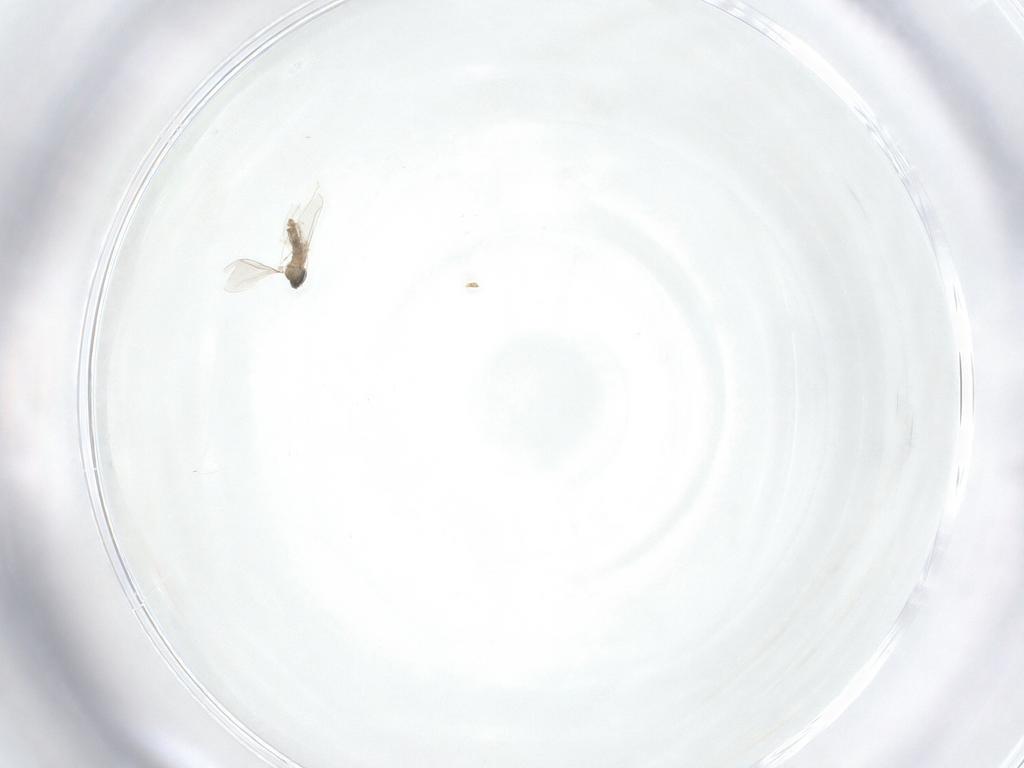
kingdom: Animalia
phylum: Arthropoda
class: Insecta
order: Diptera
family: Cecidomyiidae
